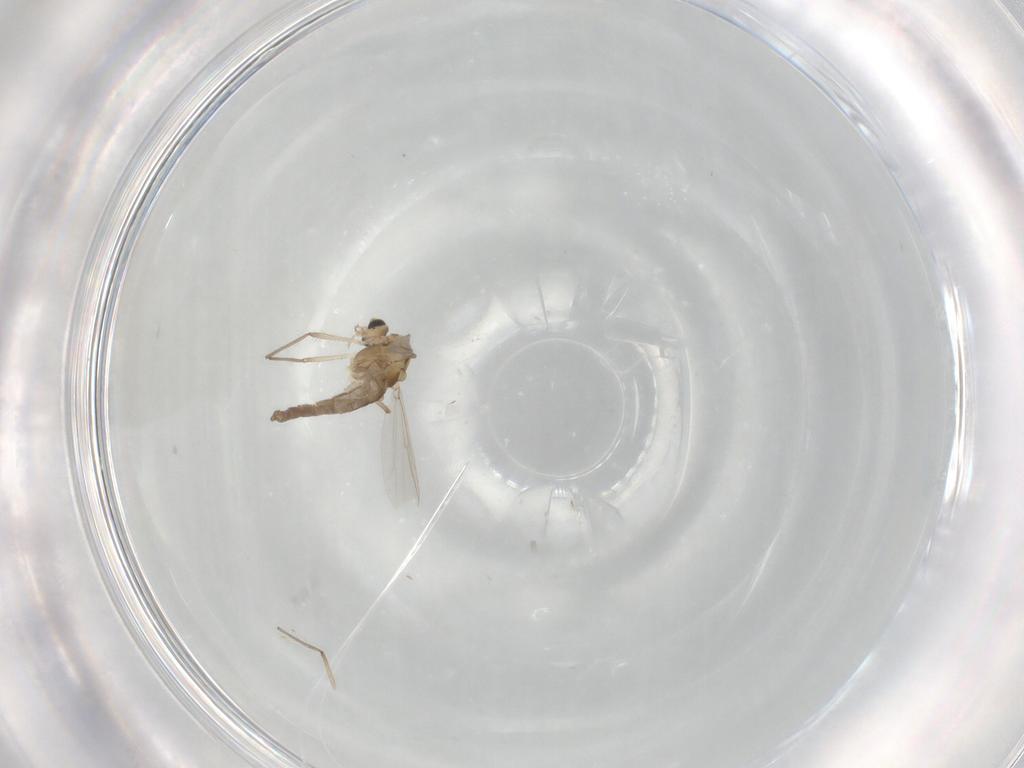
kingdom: Animalia
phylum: Arthropoda
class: Insecta
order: Diptera
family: Chironomidae
